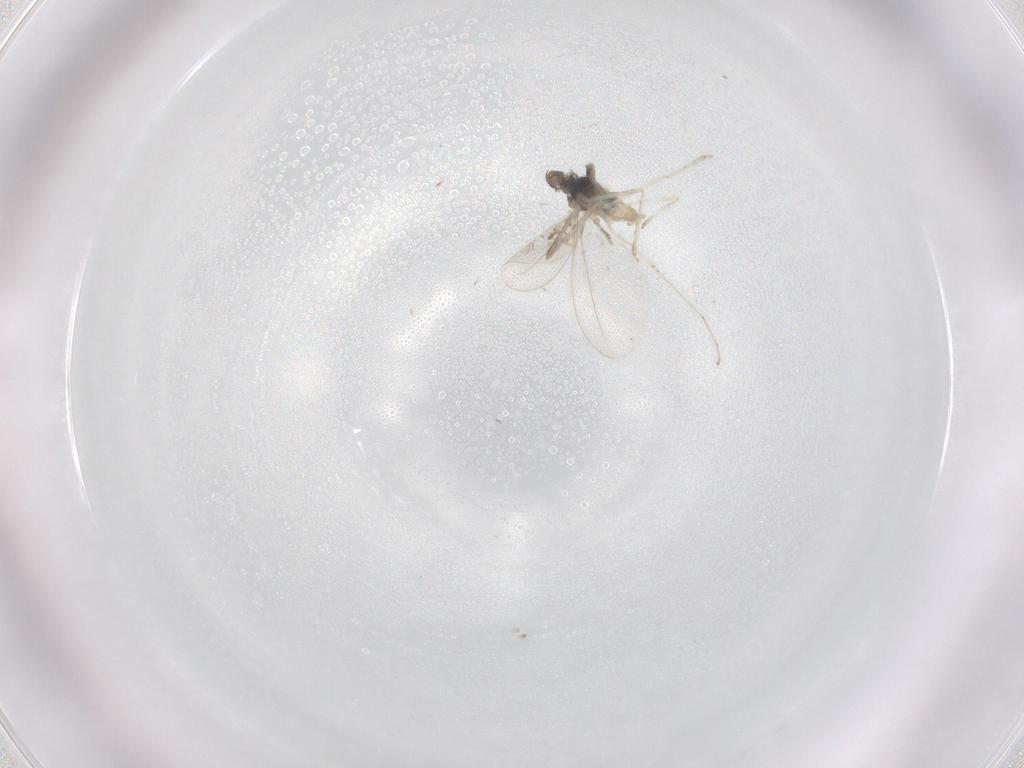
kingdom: Animalia
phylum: Arthropoda
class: Insecta
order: Diptera
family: Cecidomyiidae
